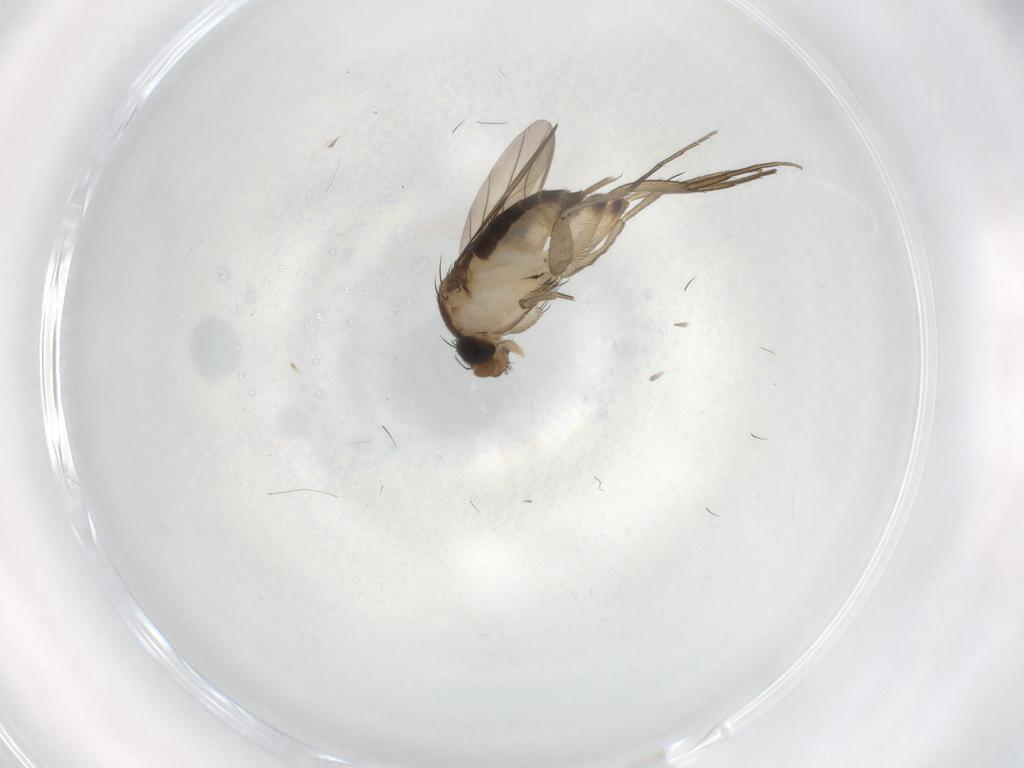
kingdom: Animalia
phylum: Arthropoda
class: Insecta
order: Diptera
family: Phoridae
